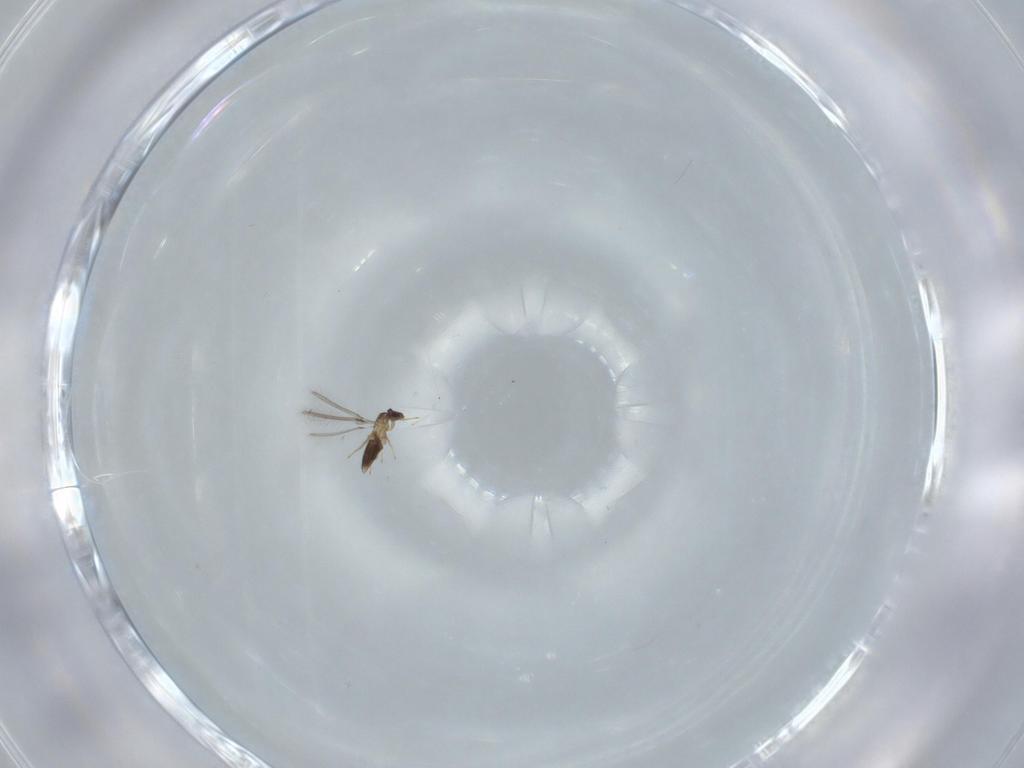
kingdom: Animalia
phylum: Arthropoda
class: Insecta
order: Hymenoptera
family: Mymaridae
